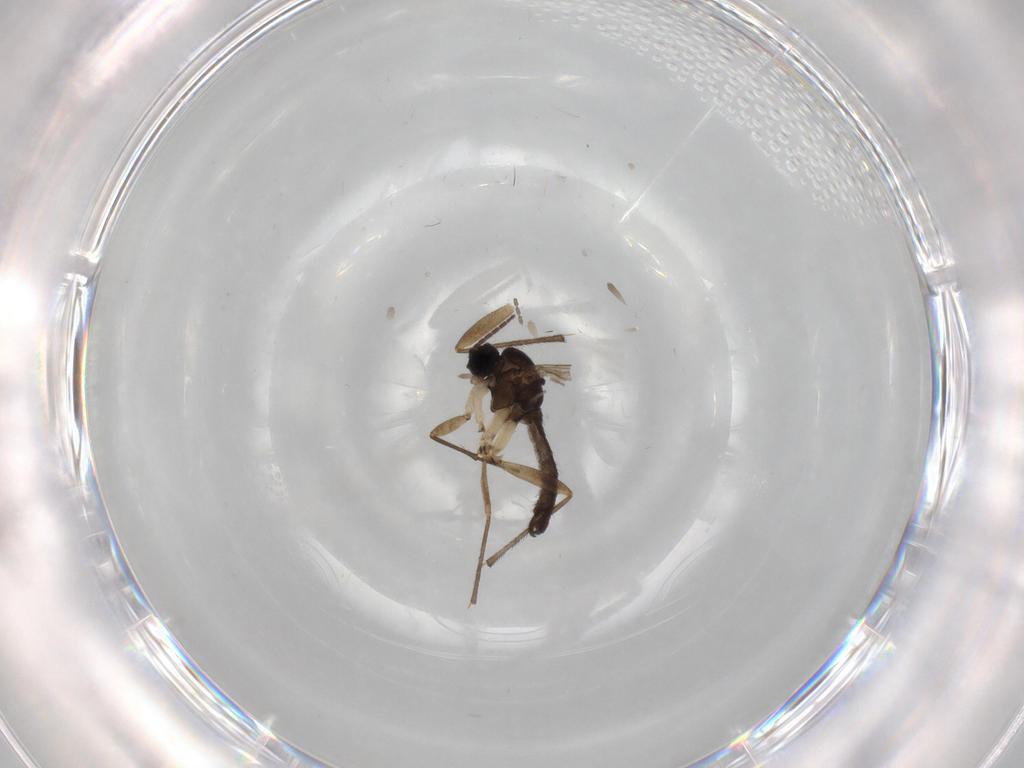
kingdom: Animalia
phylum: Arthropoda
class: Insecta
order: Diptera
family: Sciaridae
